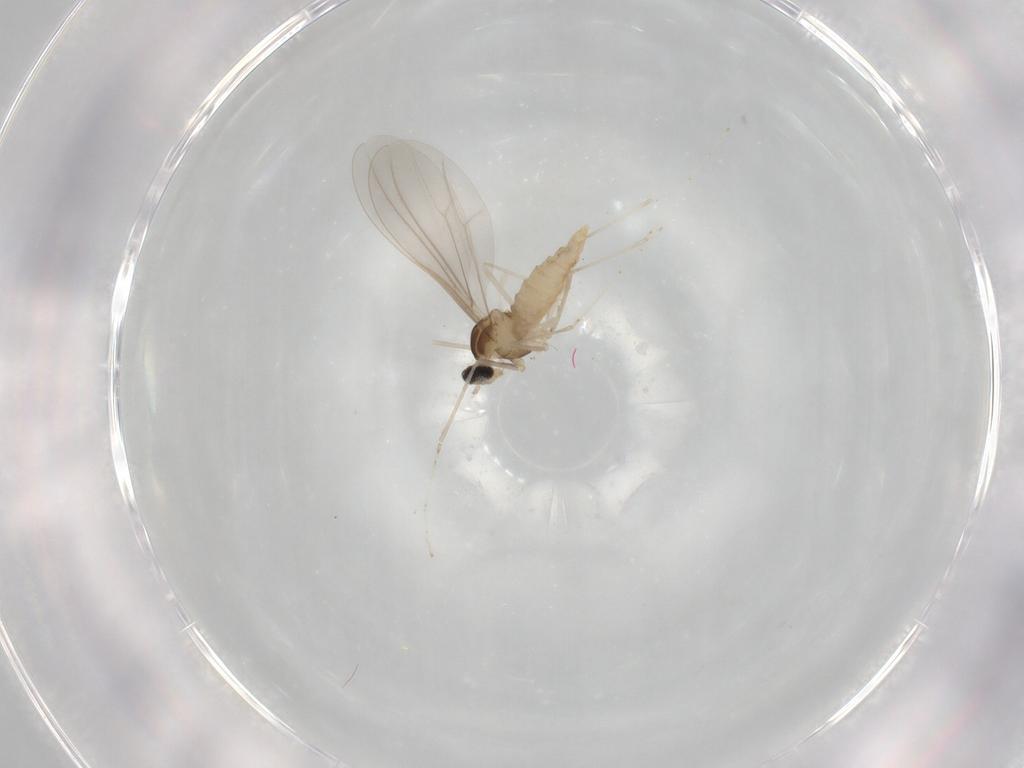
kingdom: Animalia
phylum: Arthropoda
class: Insecta
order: Diptera
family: Cecidomyiidae
